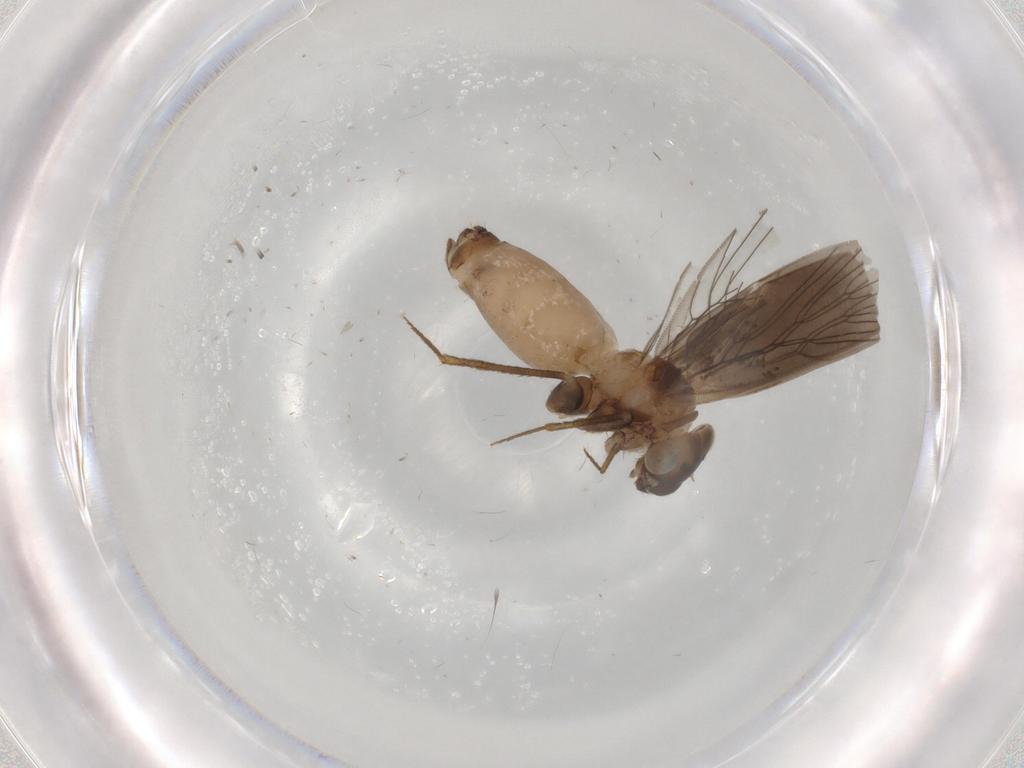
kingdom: Animalia
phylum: Arthropoda
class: Insecta
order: Psocodea
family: Lepidopsocidae
